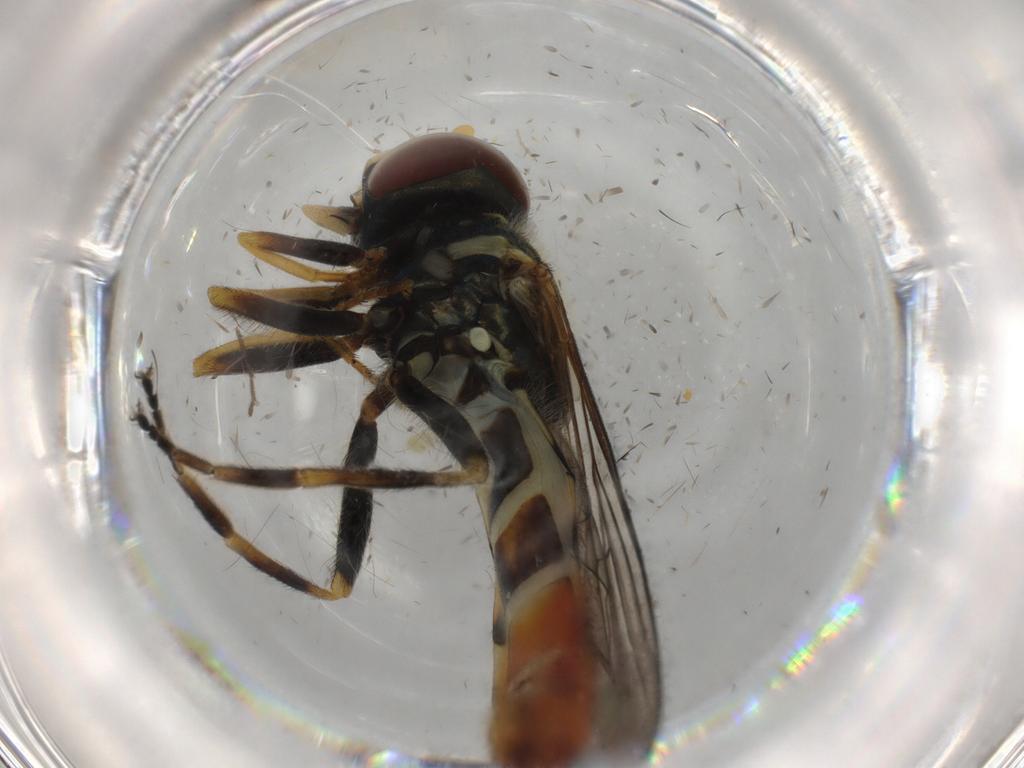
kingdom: Animalia
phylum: Arthropoda
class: Insecta
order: Diptera
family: Syrphidae
